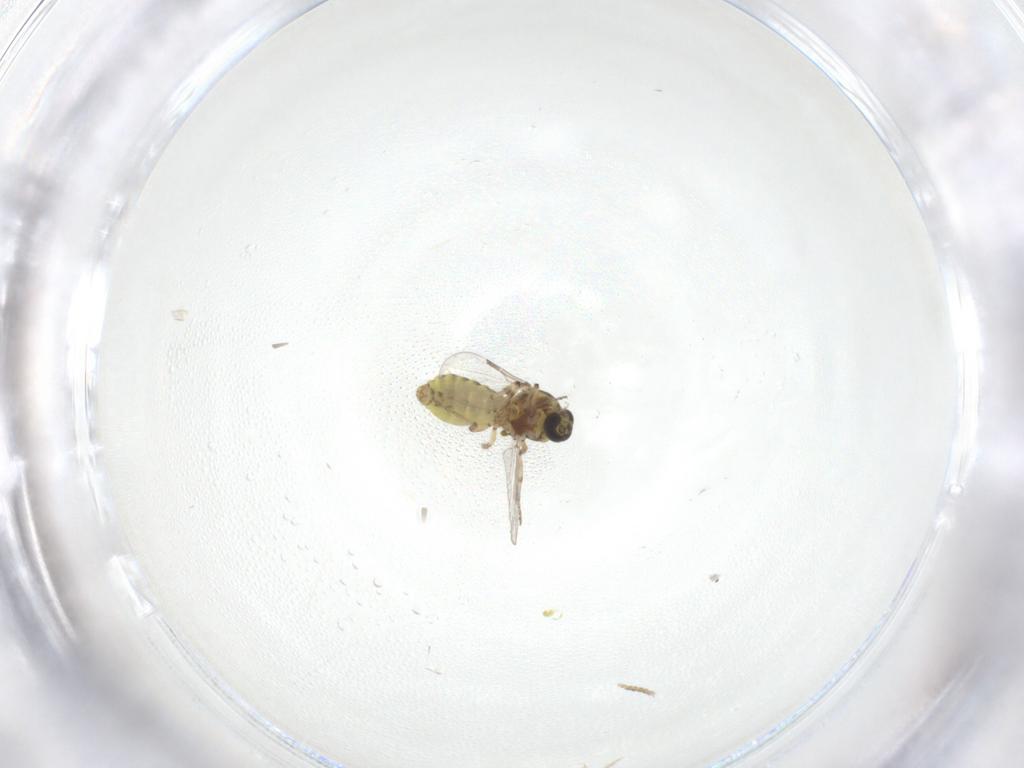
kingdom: Animalia
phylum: Arthropoda
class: Insecta
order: Diptera
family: Ceratopogonidae
